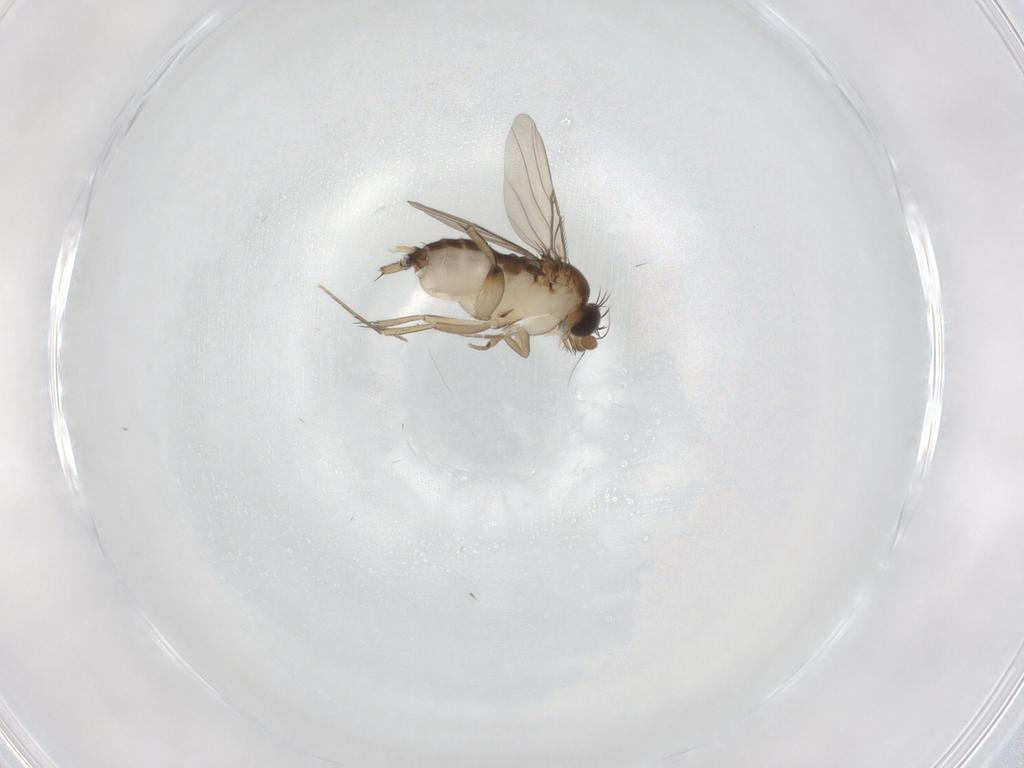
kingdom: Animalia
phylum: Arthropoda
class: Insecta
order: Diptera
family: Phoridae
